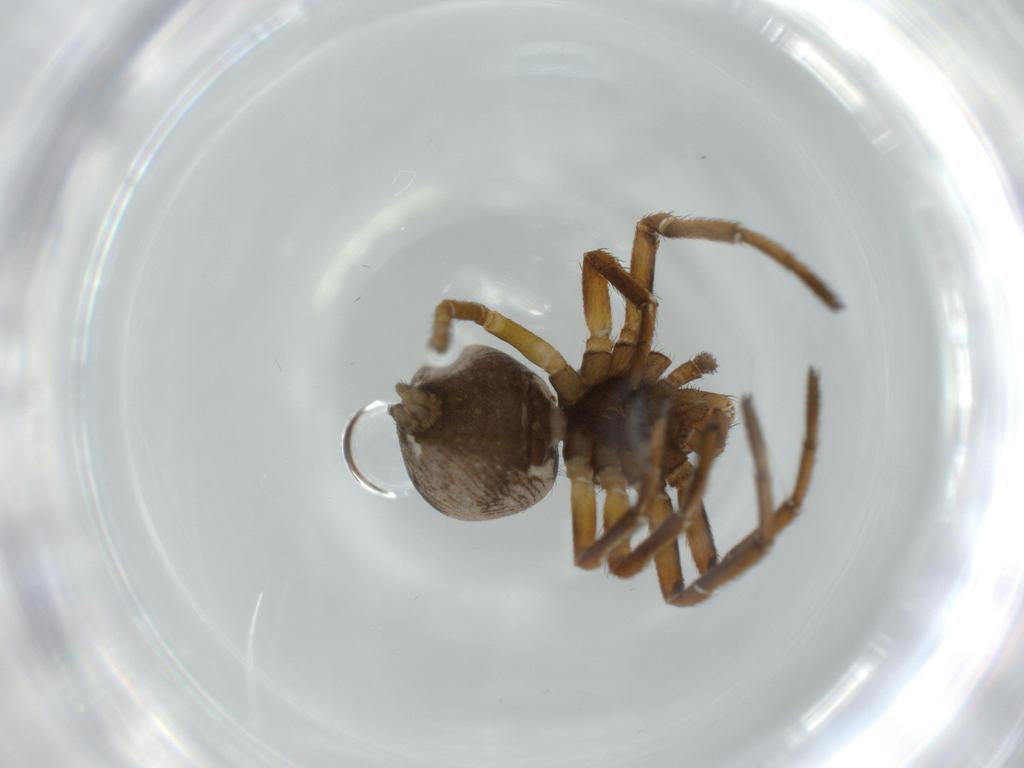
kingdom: Animalia
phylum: Arthropoda
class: Arachnida
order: Araneae
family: Thomisidae
